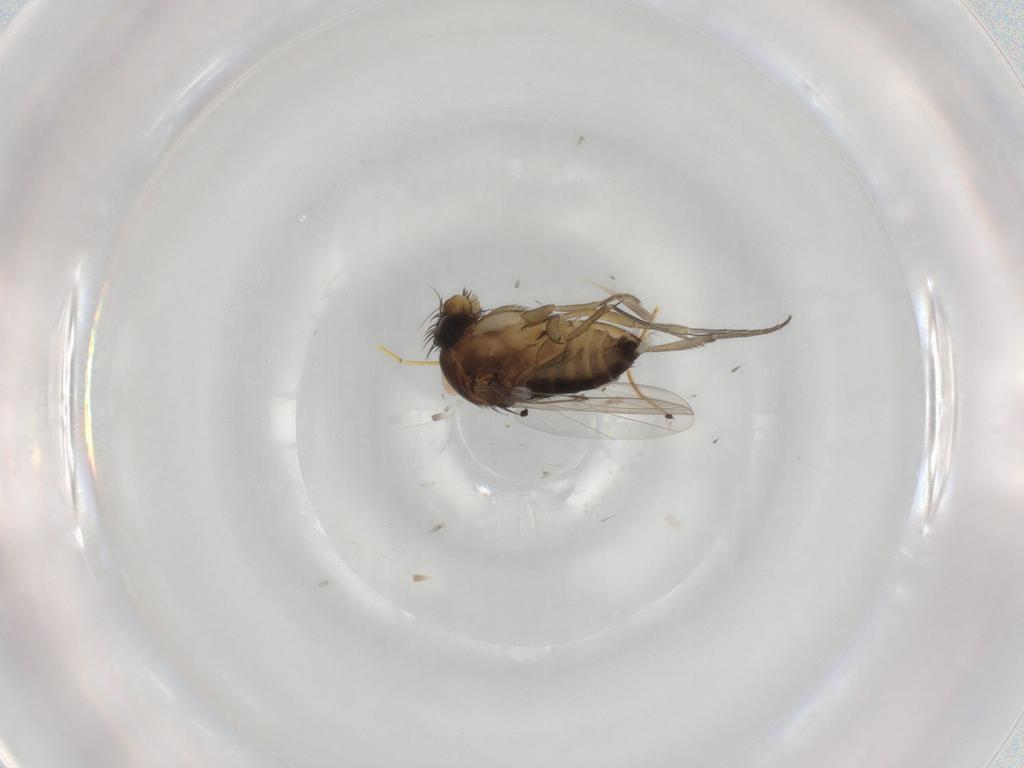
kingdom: Animalia
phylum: Arthropoda
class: Insecta
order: Diptera
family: Phoridae
